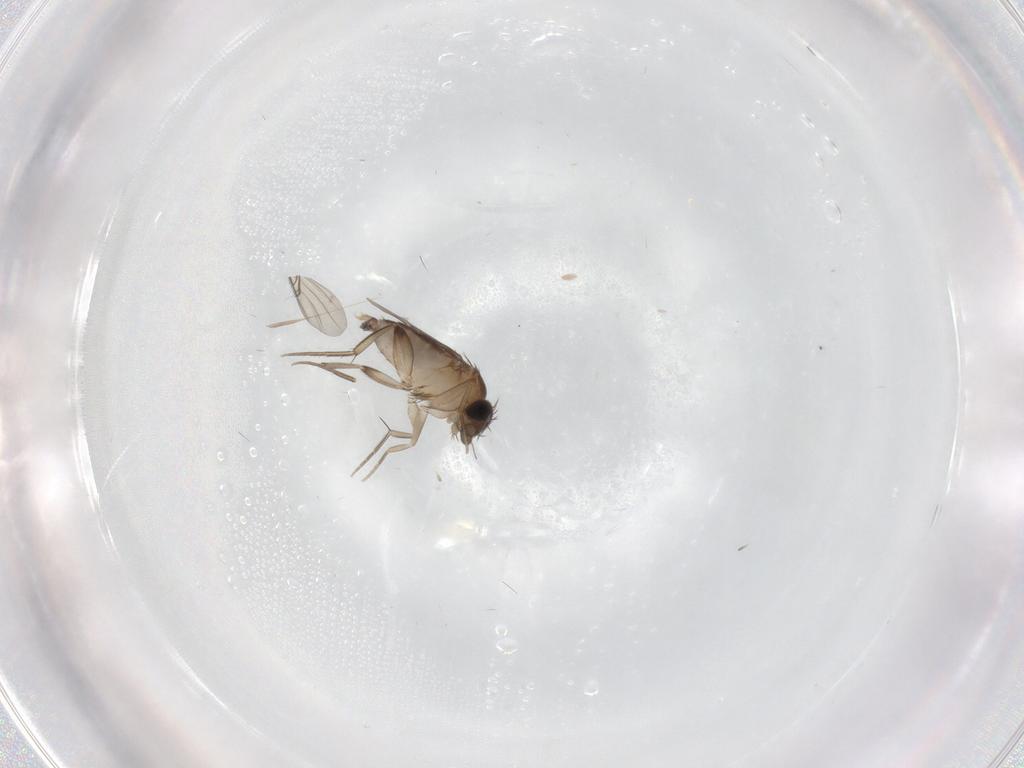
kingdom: Animalia
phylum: Arthropoda
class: Insecta
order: Diptera
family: Phoridae
